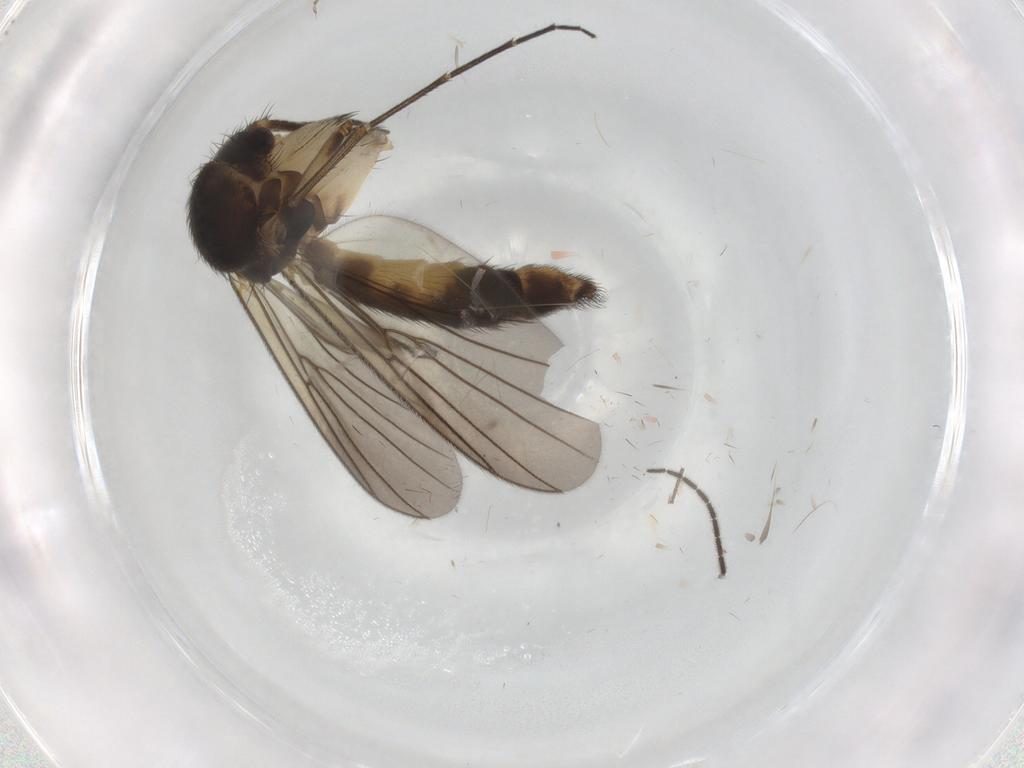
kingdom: Animalia
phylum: Arthropoda
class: Insecta
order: Diptera
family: Mycetophilidae
